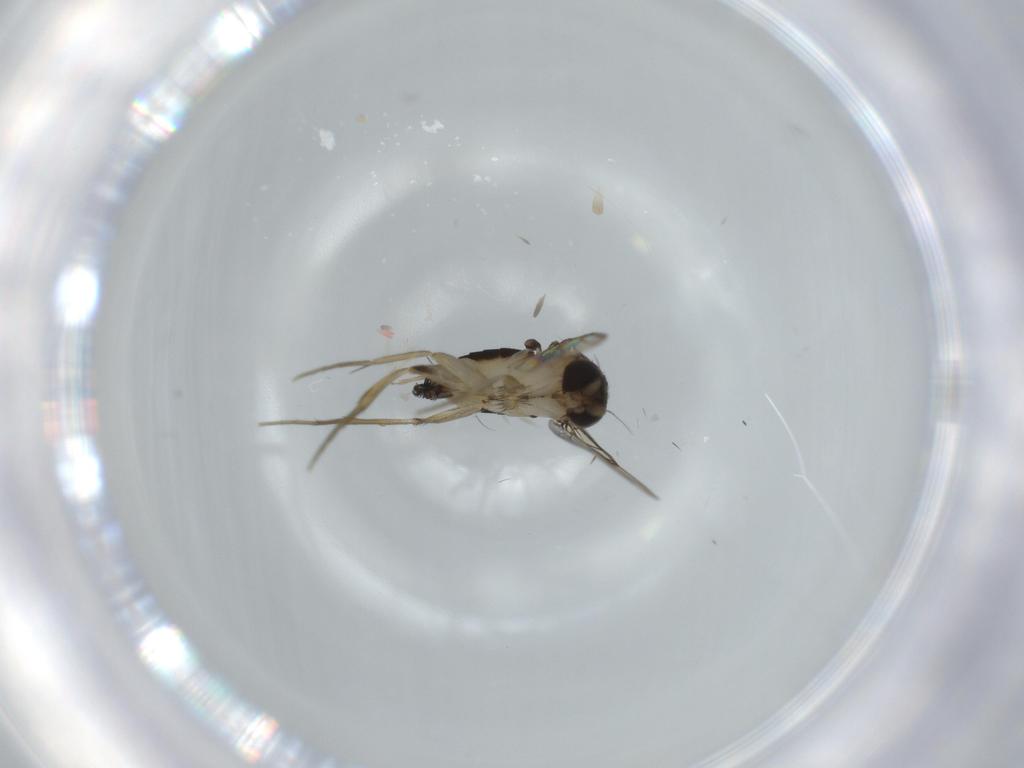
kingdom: Animalia
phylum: Arthropoda
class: Insecta
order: Diptera
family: Phoridae
